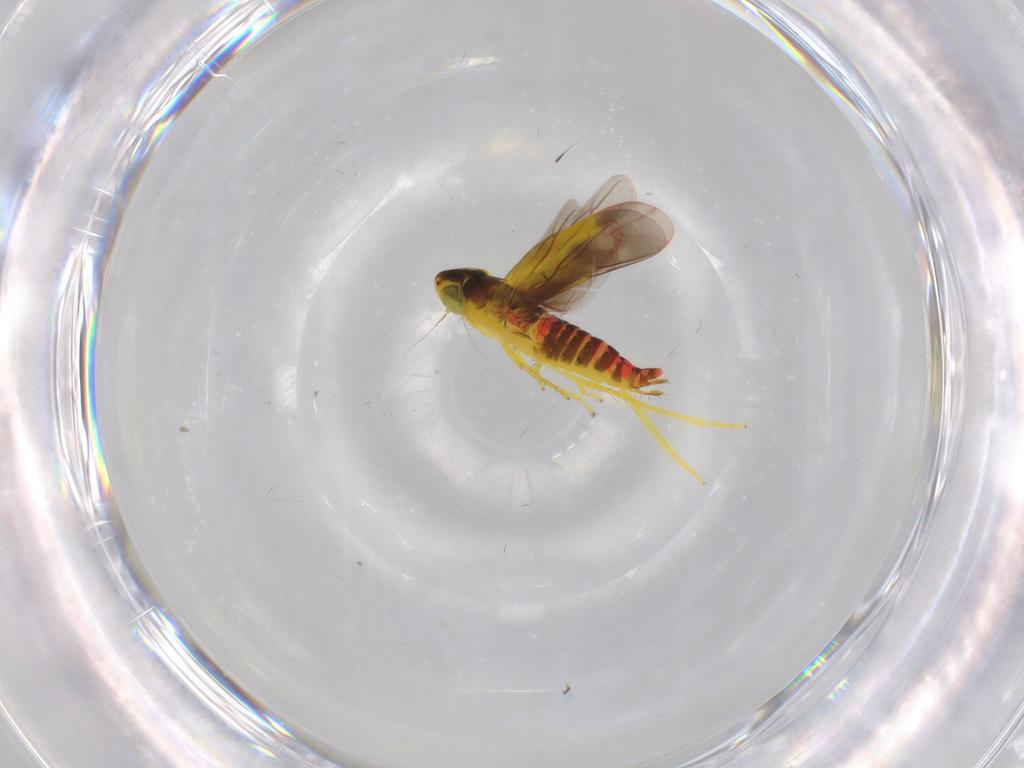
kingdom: Animalia
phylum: Arthropoda
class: Insecta
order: Hemiptera
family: Cicadellidae
